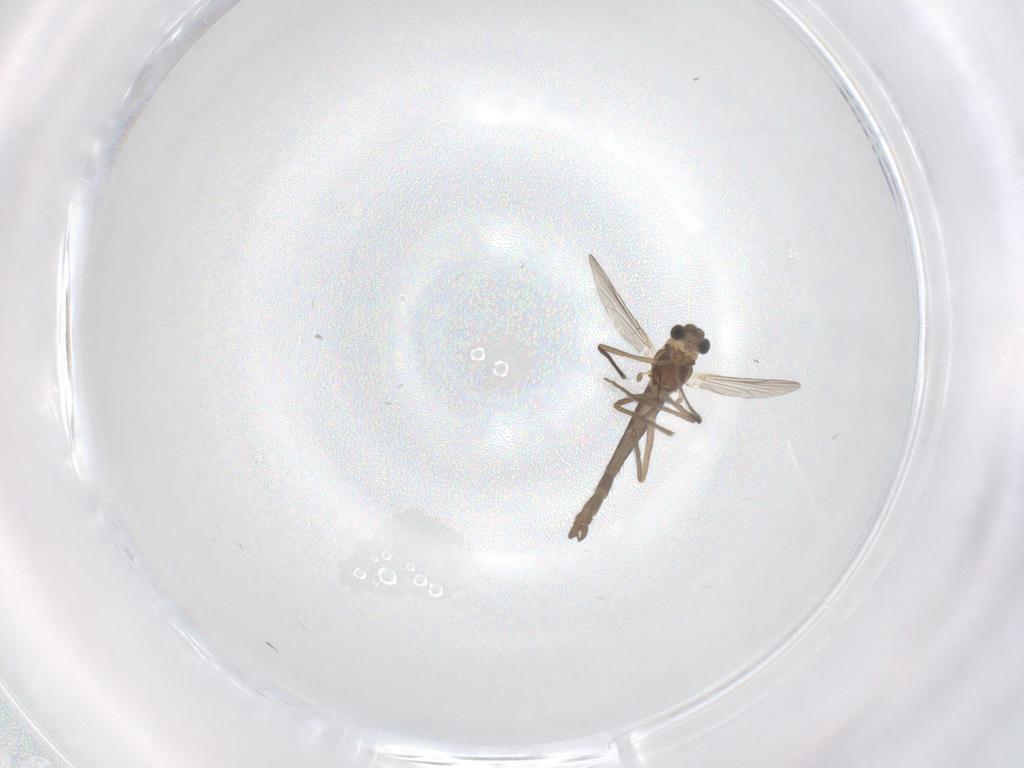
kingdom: Animalia
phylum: Arthropoda
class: Insecta
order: Diptera
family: Chironomidae
